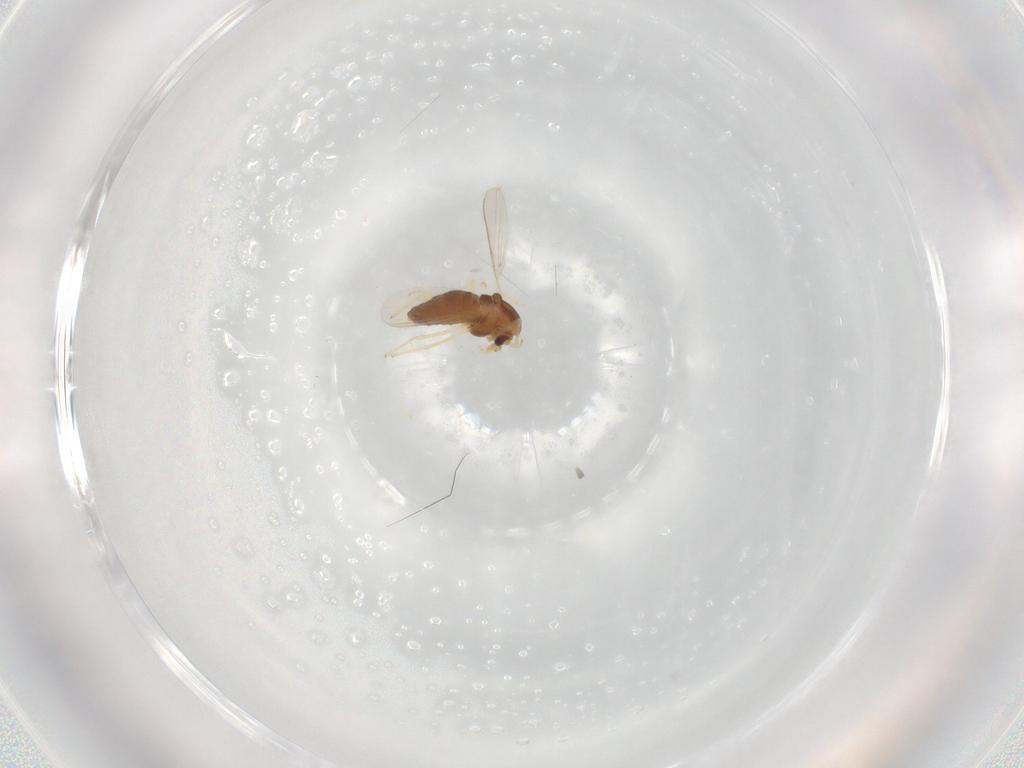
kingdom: Animalia
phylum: Arthropoda
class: Insecta
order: Diptera
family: Chironomidae
